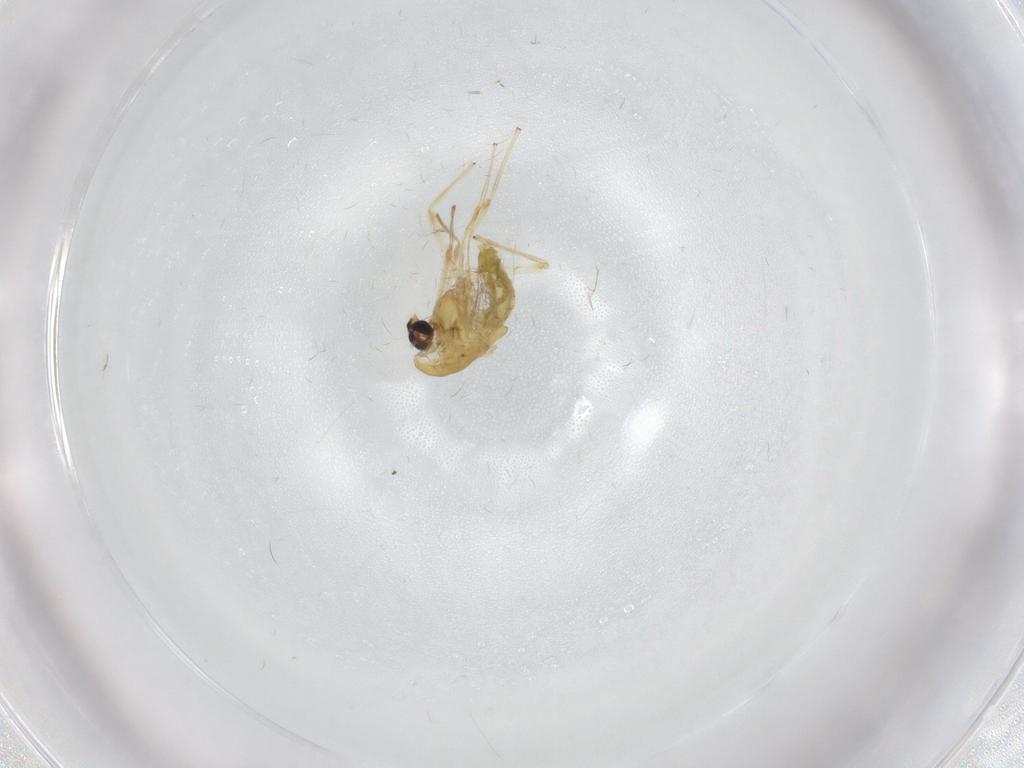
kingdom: Animalia
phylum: Arthropoda
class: Insecta
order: Diptera
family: Chironomidae
